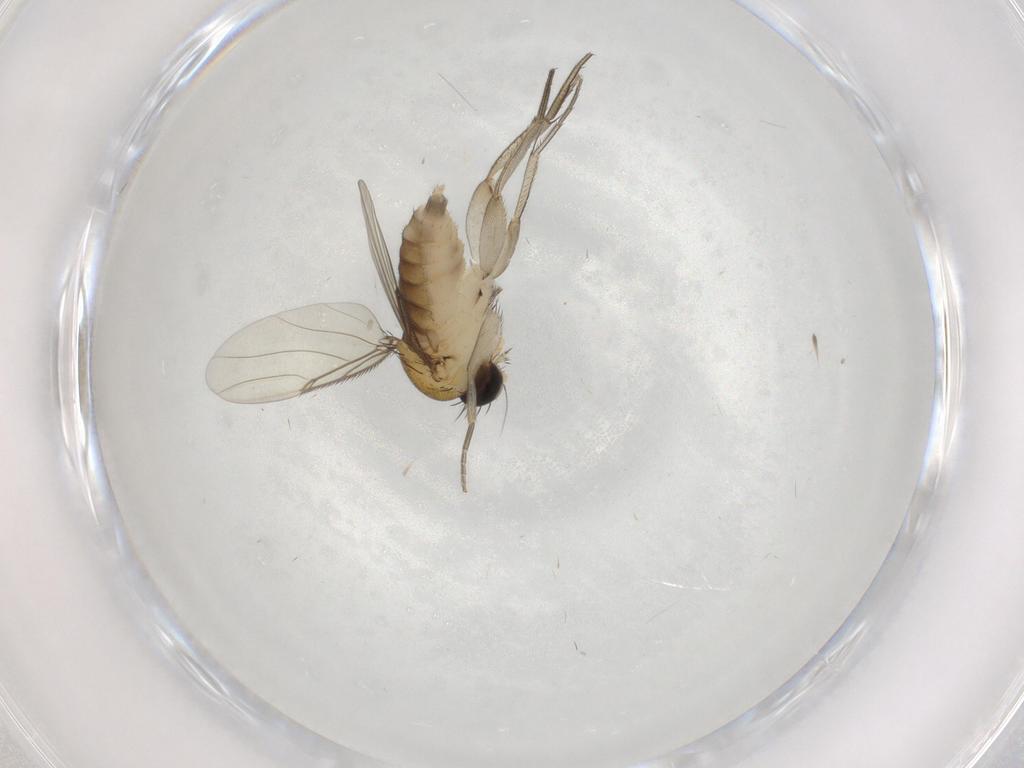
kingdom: Animalia
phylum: Arthropoda
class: Insecta
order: Diptera
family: Phoridae
